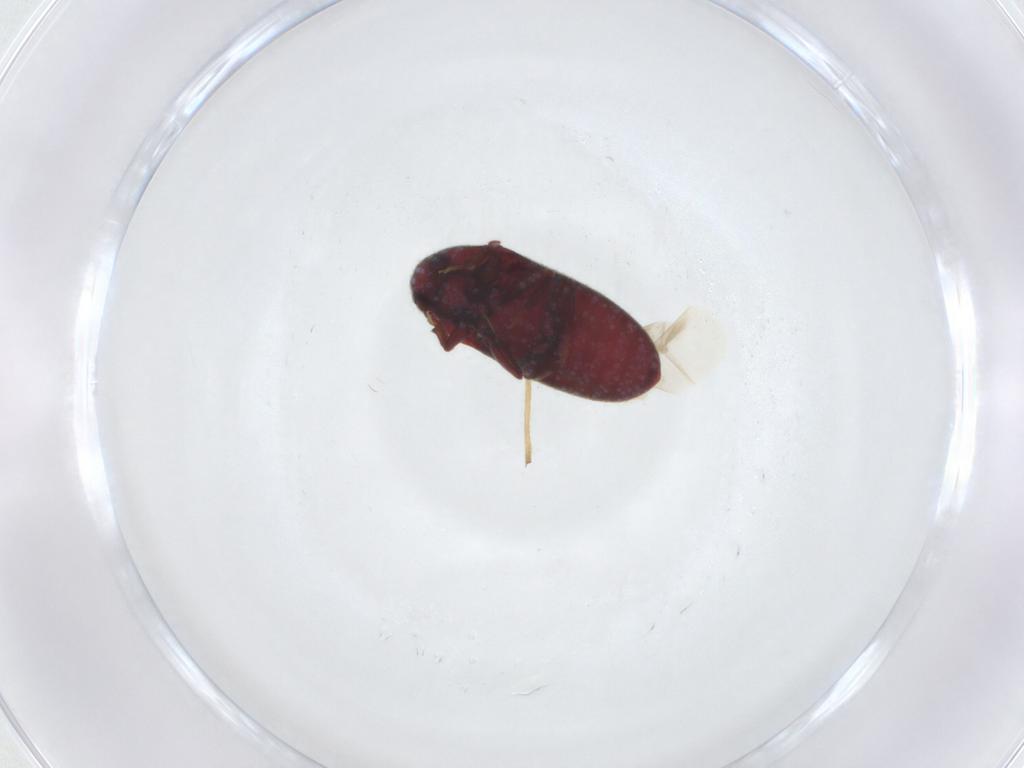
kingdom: Animalia
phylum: Arthropoda
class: Insecta
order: Coleoptera
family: Throscidae
